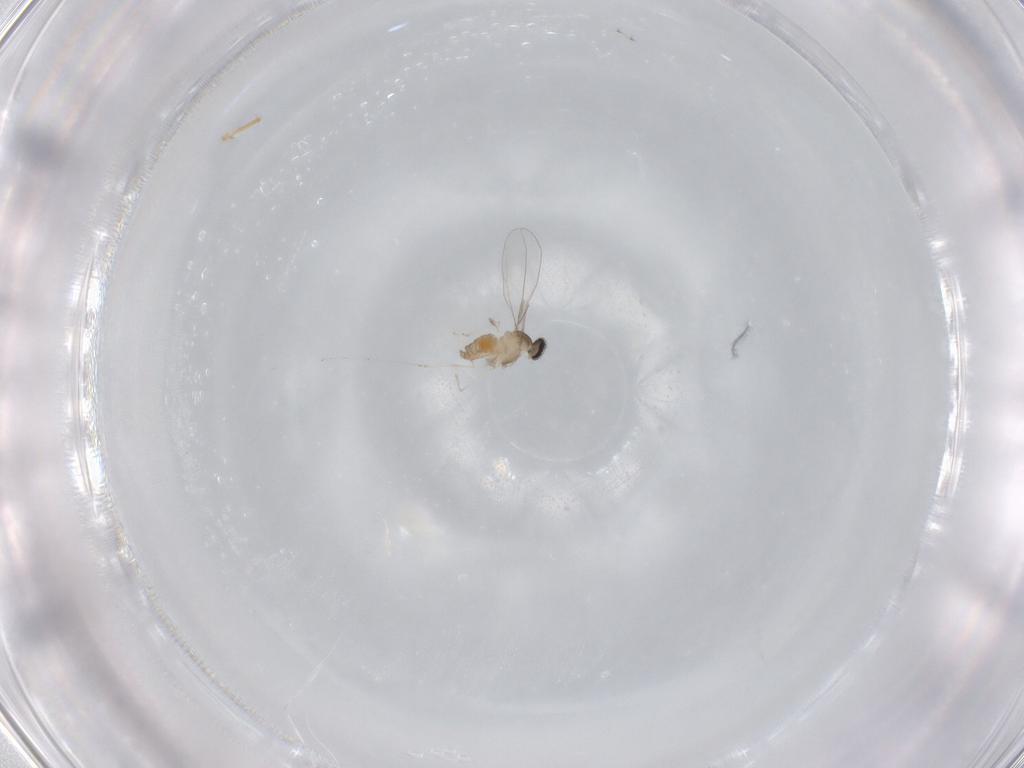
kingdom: Animalia
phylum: Arthropoda
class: Insecta
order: Diptera
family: Cecidomyiidae
